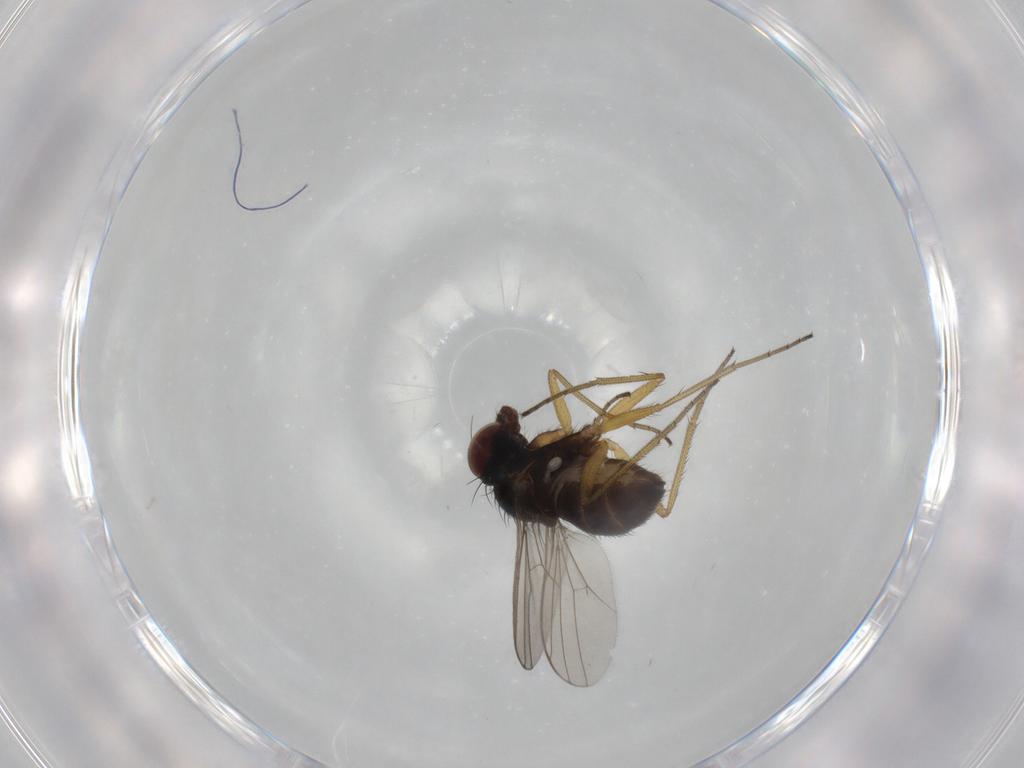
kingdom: Animalia
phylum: Arthropoda
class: Insecta
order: Diptera
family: Dolichopodidae
